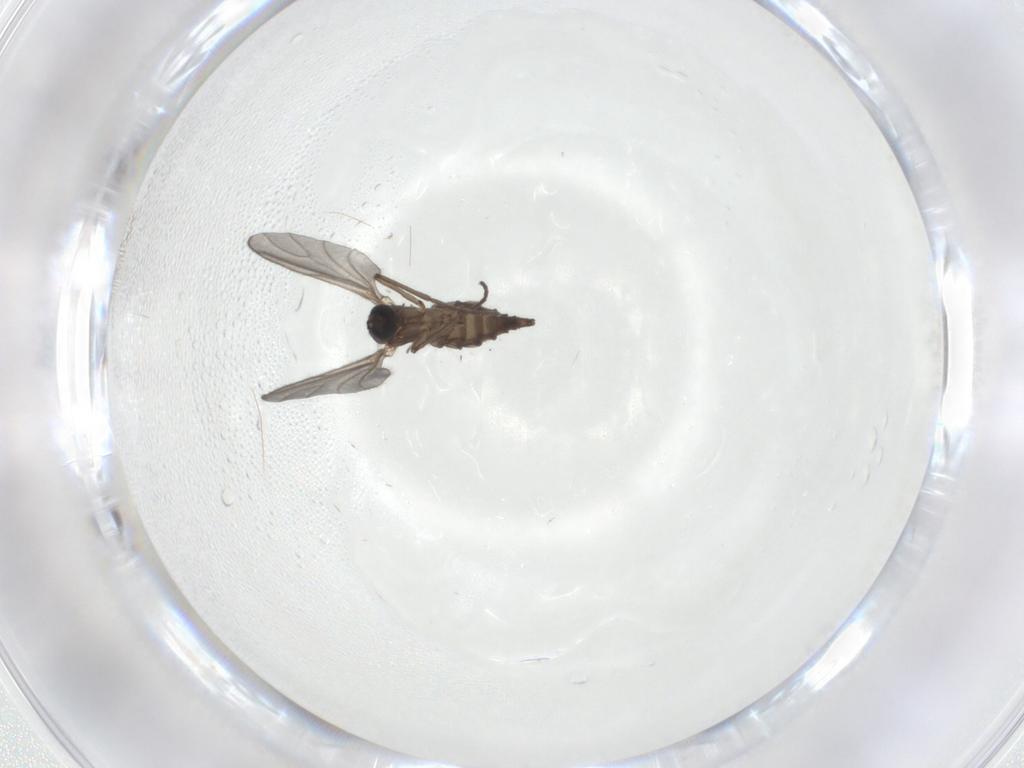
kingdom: Animalia
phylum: Arthropoda
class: Insecta
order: Diptera
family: Sciaridae
